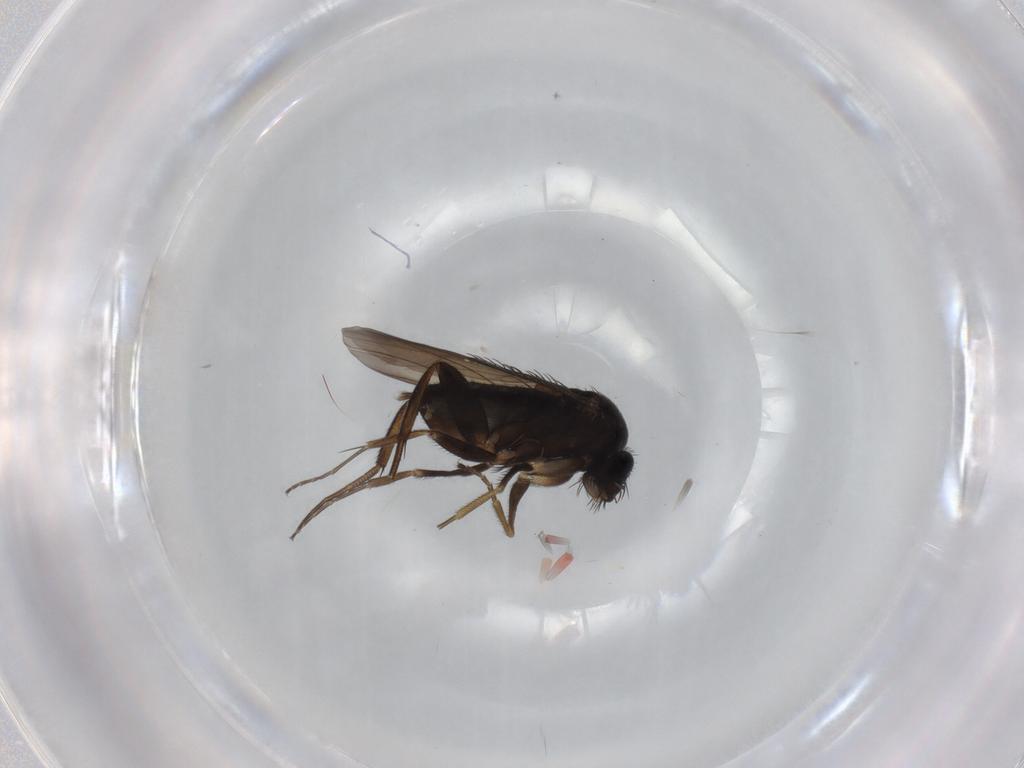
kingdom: Animalia
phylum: Arthropoda
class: Insecta
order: Diptera
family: Phoridae
